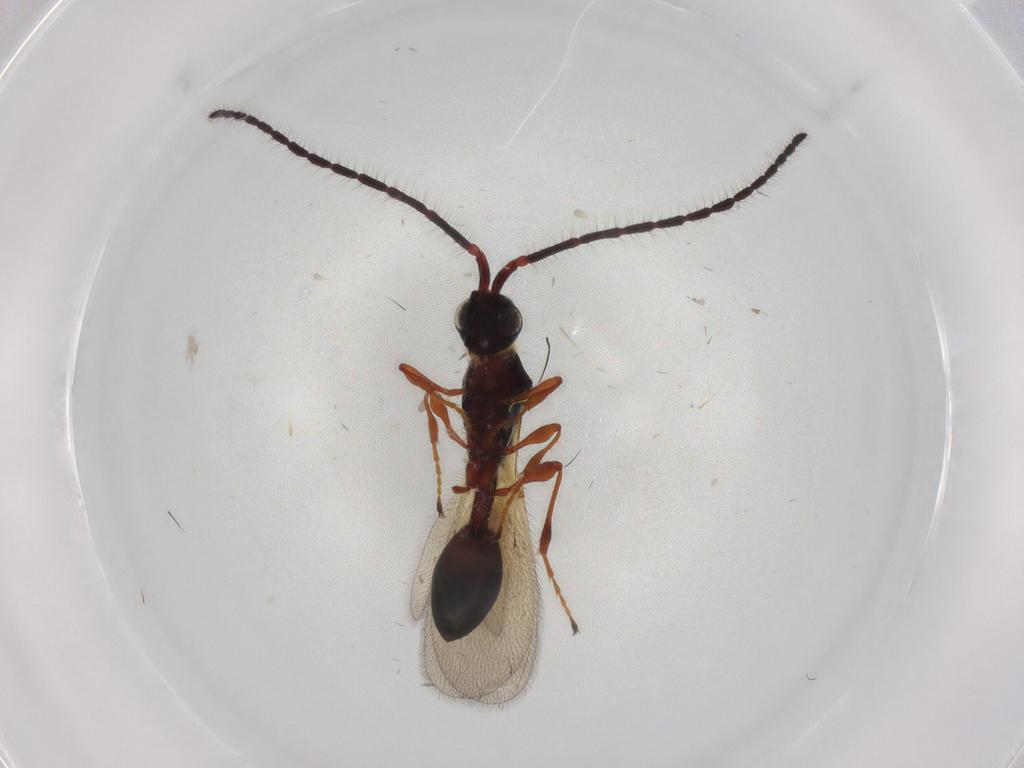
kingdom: Animalia
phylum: Arthropoda
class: Insecta
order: Hymenoptera
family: Diapriidae
